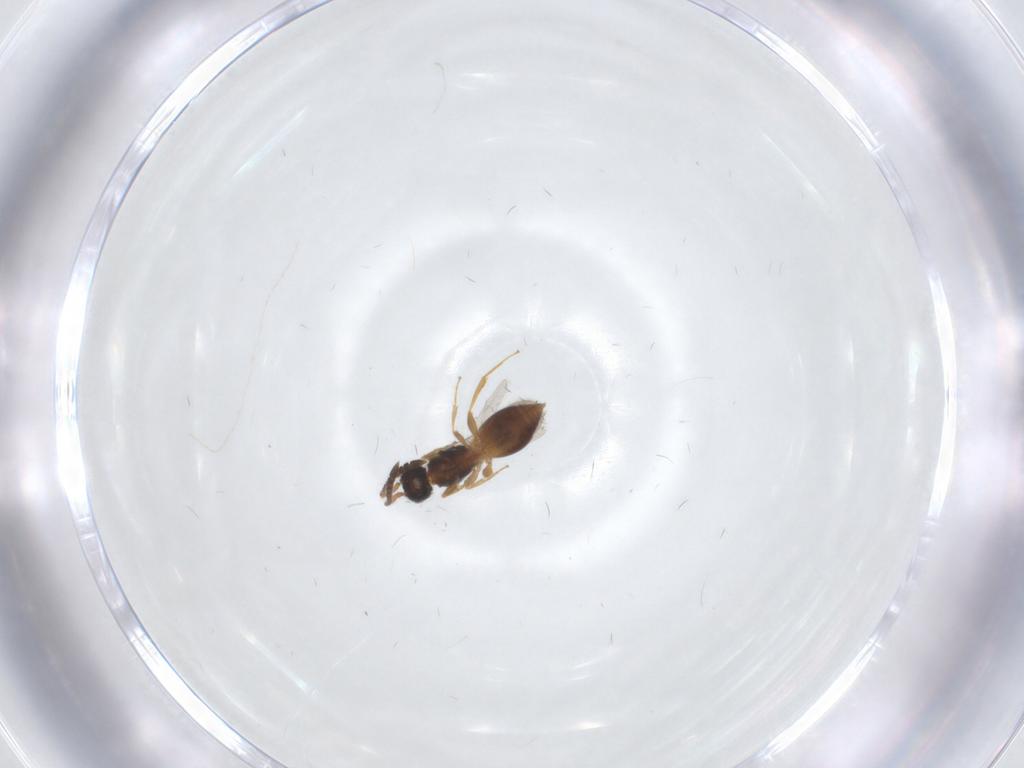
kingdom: Animalia
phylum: Arthropoda
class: Insecta
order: Hymenoptera
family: Megaspilidae
